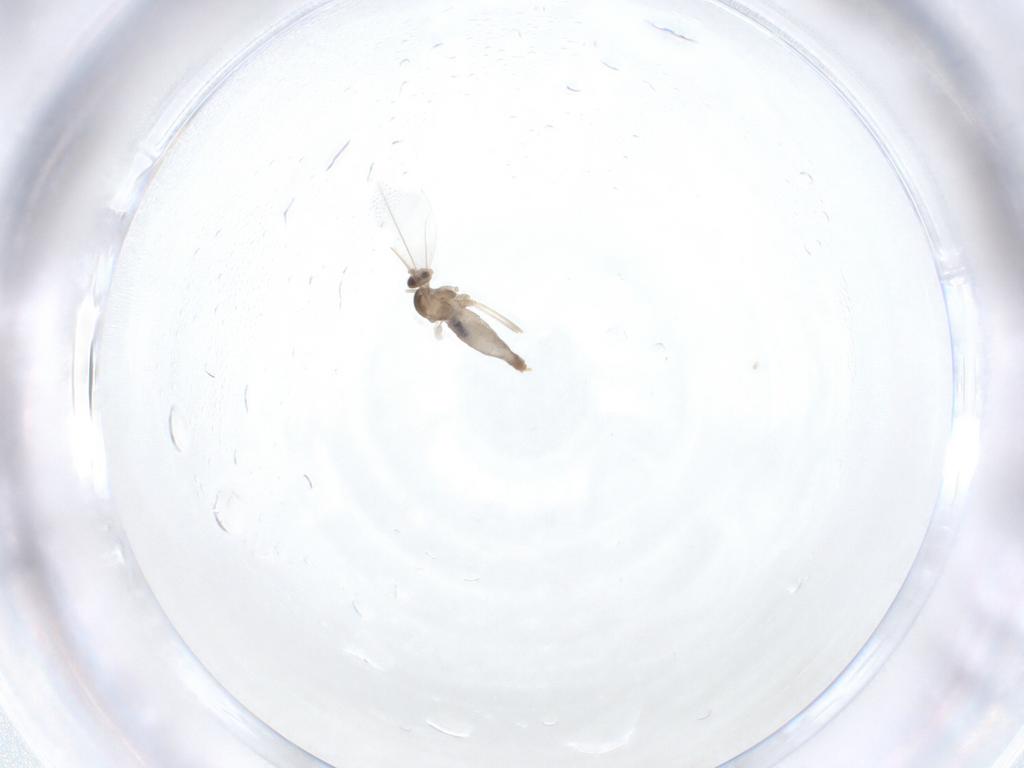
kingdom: Animalia
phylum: Arthropoda
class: Insecta
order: Diptera
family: Cecidomyiidae
